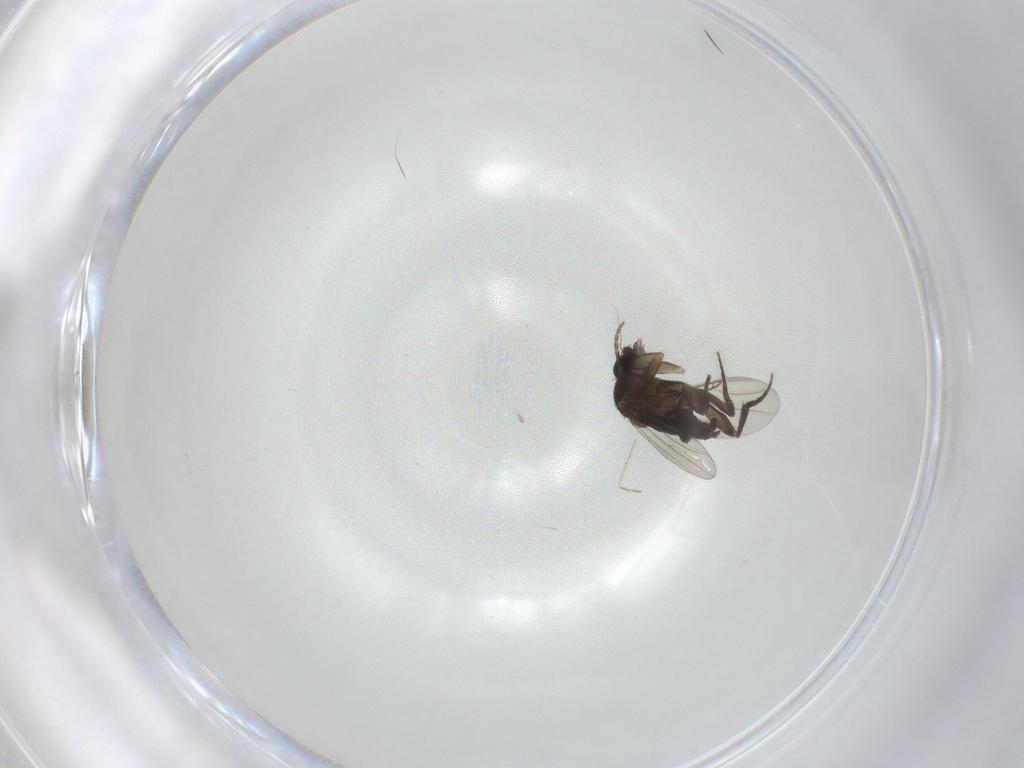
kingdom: Animalia
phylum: Arthropoda
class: Insecta
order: Diptera
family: Phoridae
